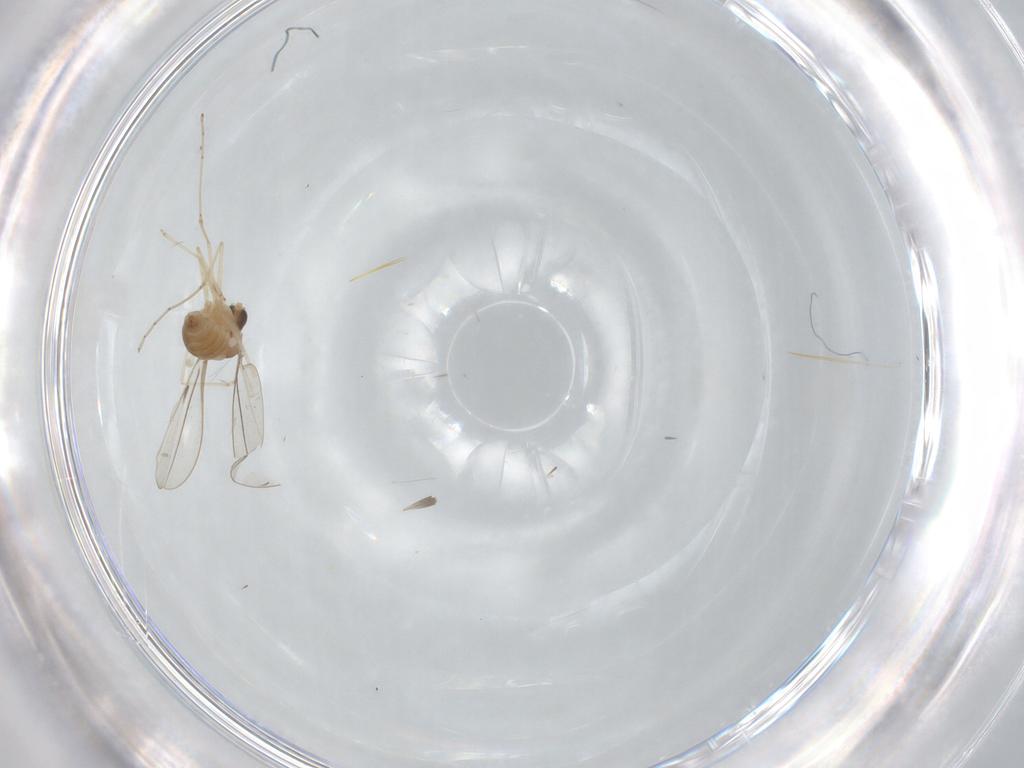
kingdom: Animalia
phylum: Arthropoda
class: Insecta
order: Diptera
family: Cecidomyiidae
